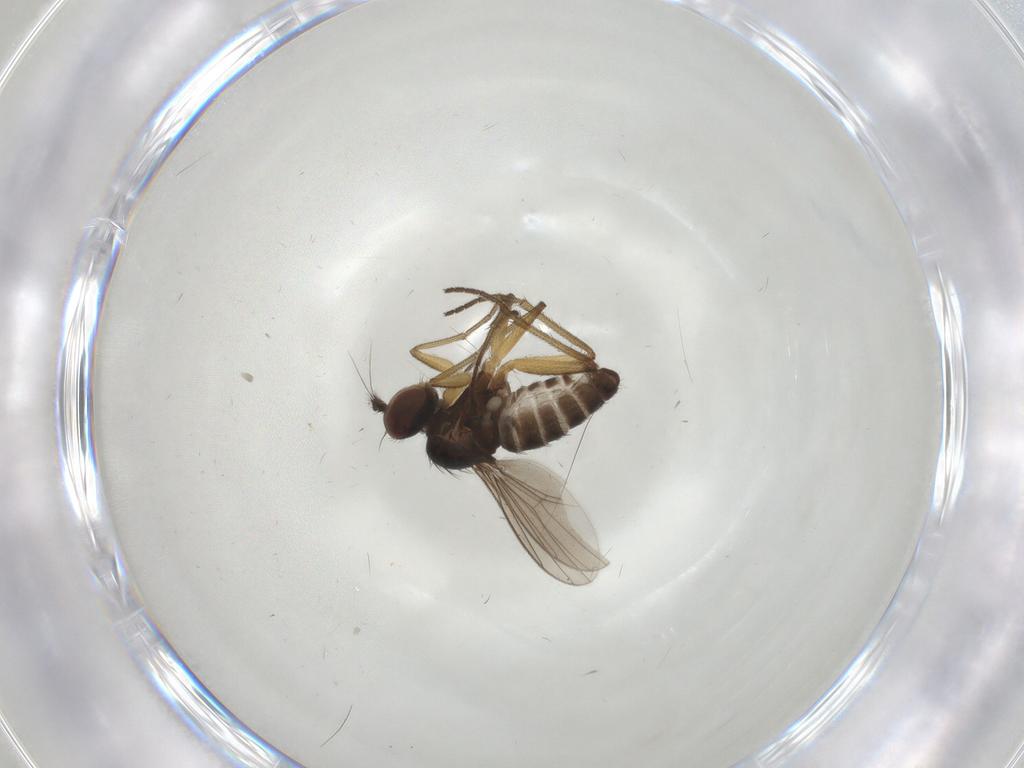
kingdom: Animalia
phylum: Arthropoda
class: Insecta
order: Diptera
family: Dolichopodidae
